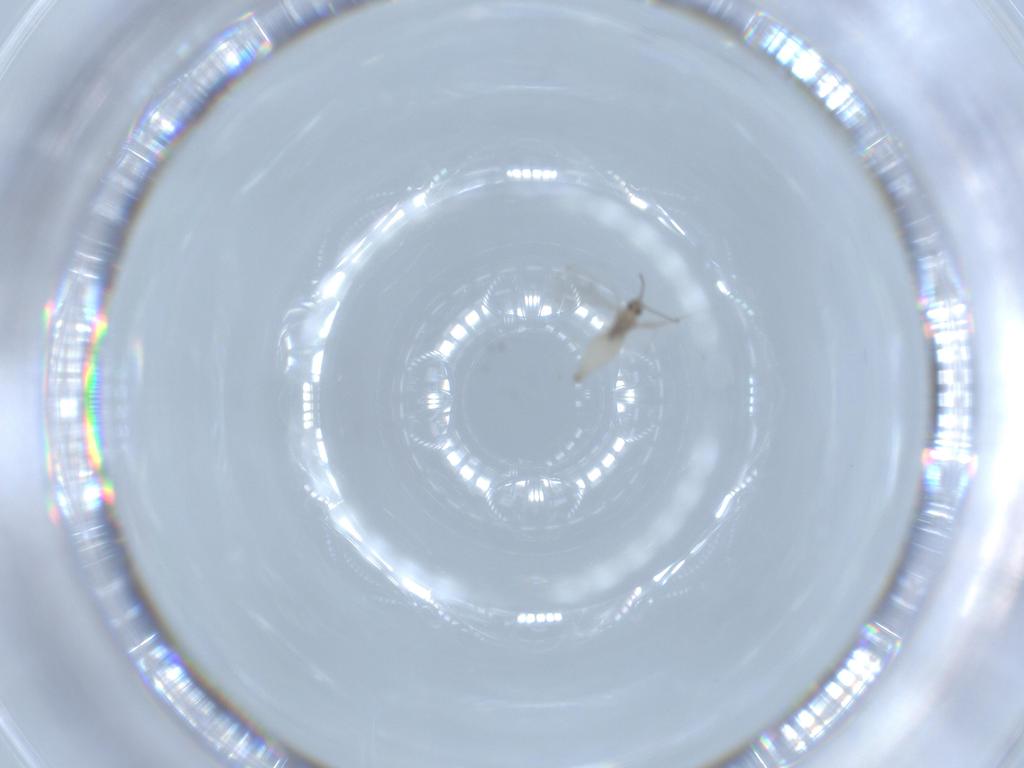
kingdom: Animalia
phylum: Arthropoda
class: Insecta
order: Diptera
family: Cecidomyiidae
